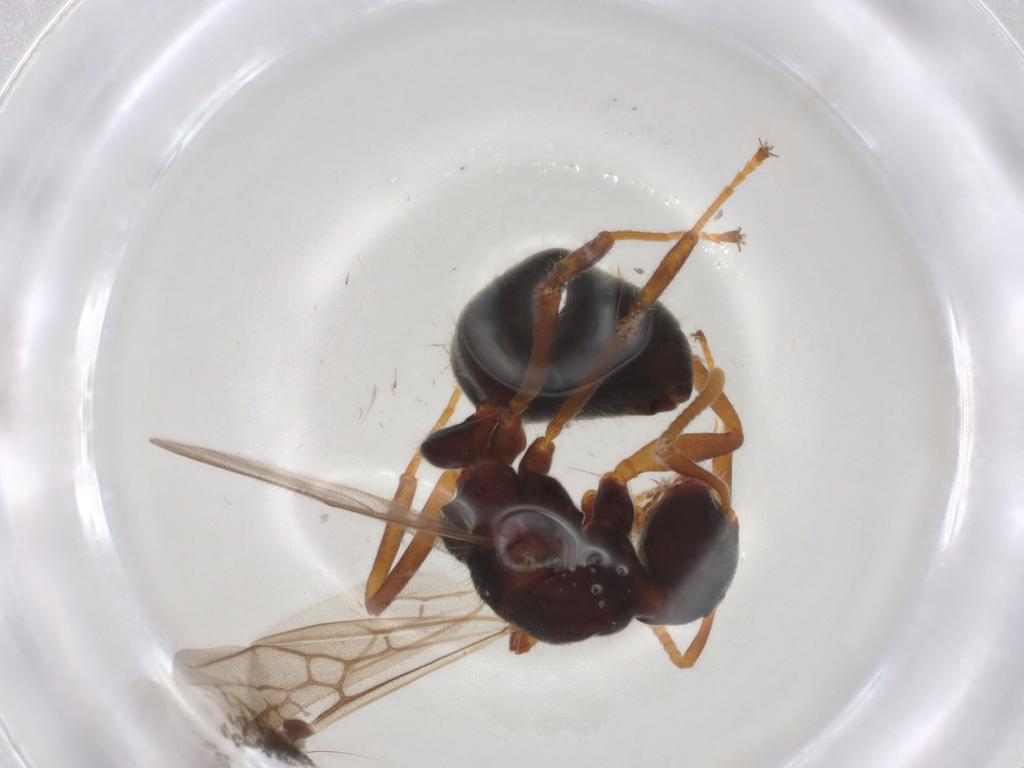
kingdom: Animalia
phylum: Arthropoda
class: Insecta
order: Hymenoptera
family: Formicidae
